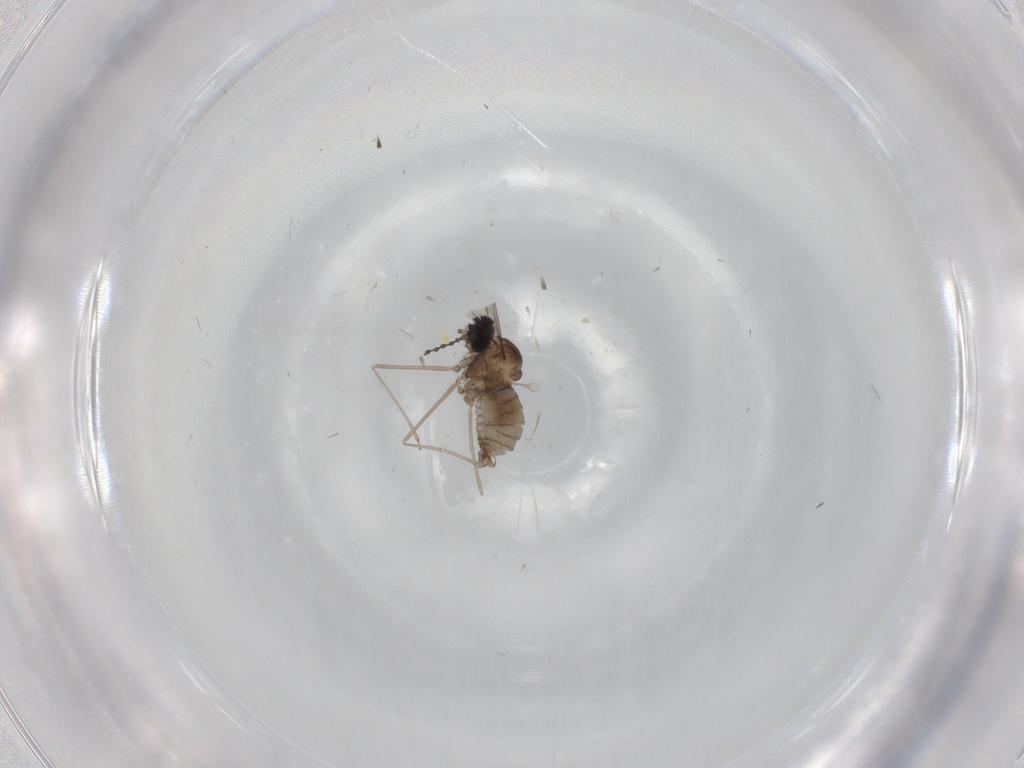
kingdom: Animalia
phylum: Arthropoda
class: Insecta
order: Diptera
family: Cecidomyiidae
